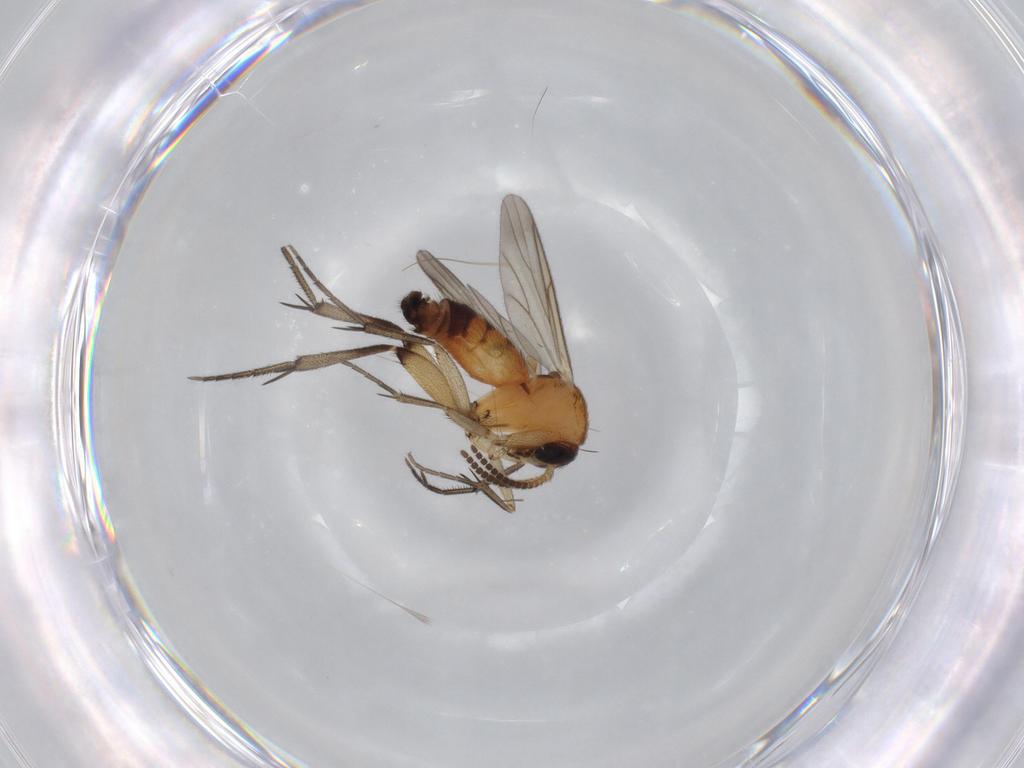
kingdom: Animalia
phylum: Arthropoda
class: Insecta
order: Diptera
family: Mycetophilidae
